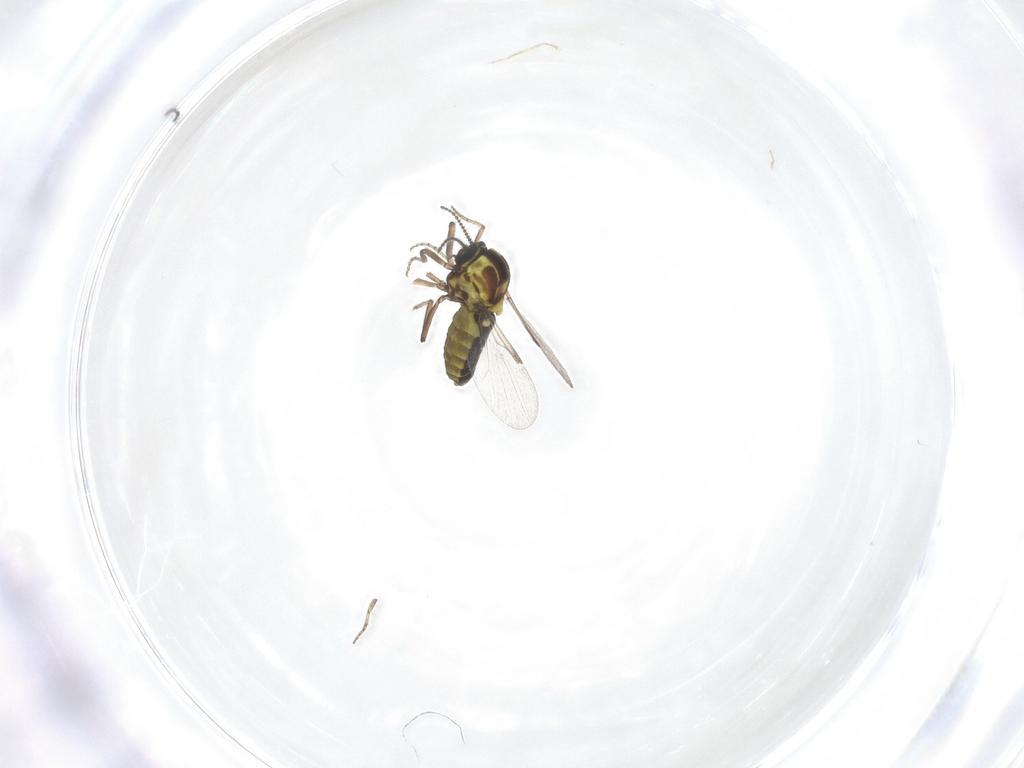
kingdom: Animalia
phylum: Arthropoda
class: Insecta
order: Diptera
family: Ceratopogonidae
